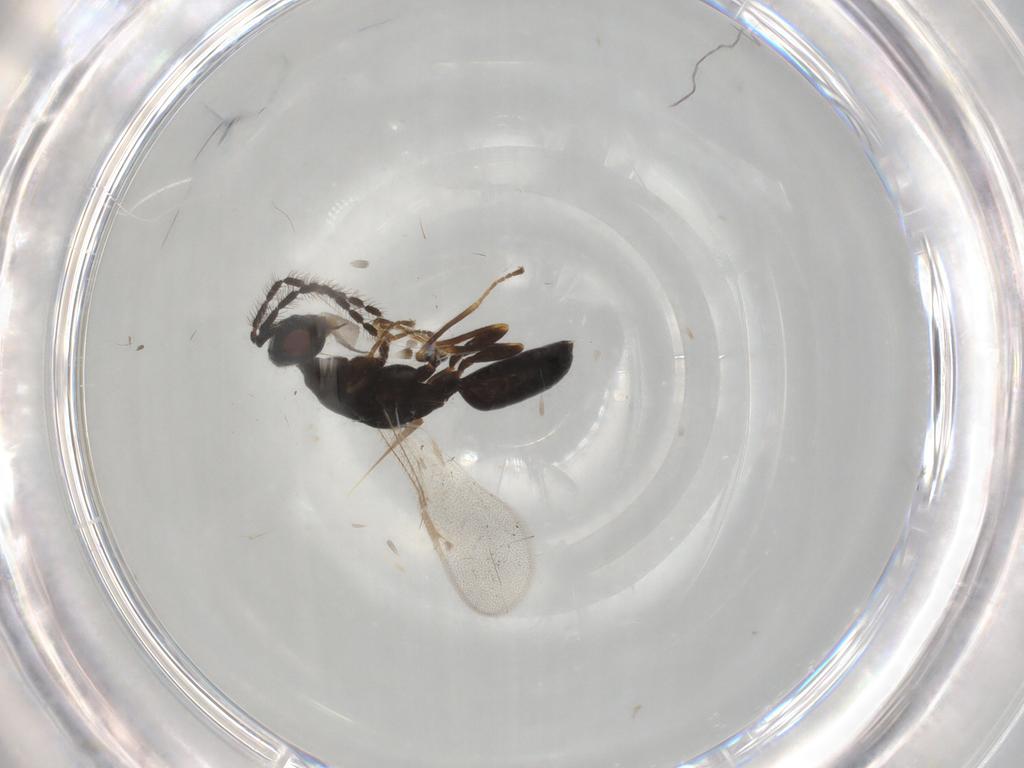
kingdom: Animalia
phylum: Arthropoda
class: Insecta
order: Hymenoptera
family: Eurytomidae
